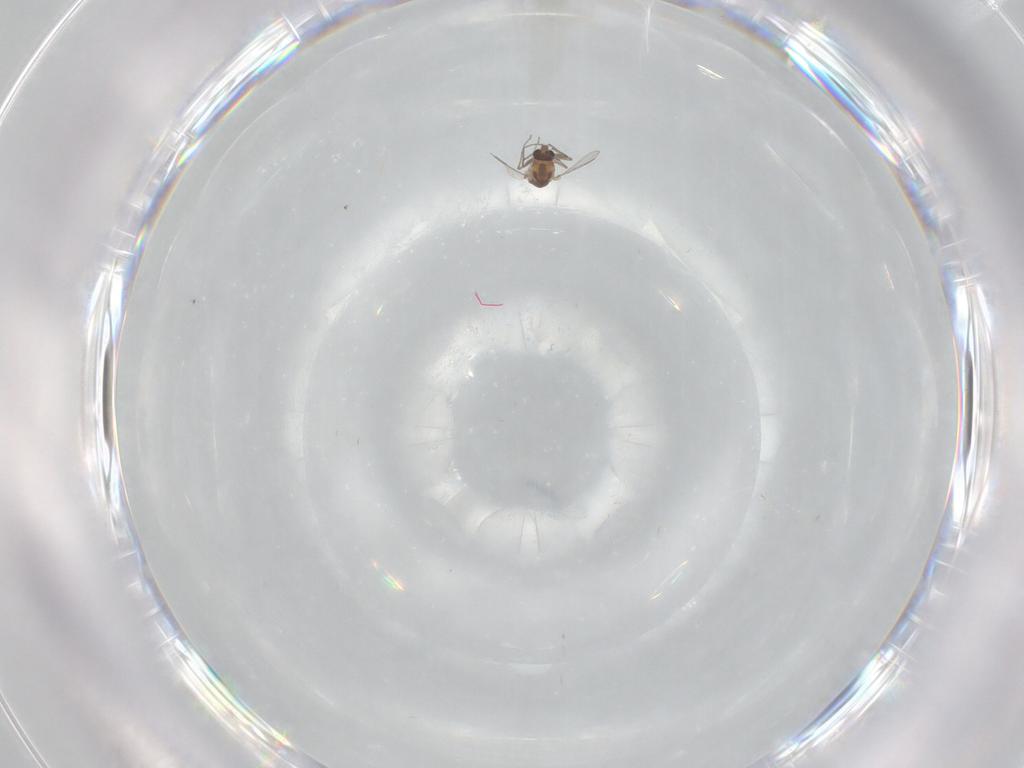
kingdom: Animalia
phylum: Arthropoda
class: Insecta
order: Diptera
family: Chironomidae
